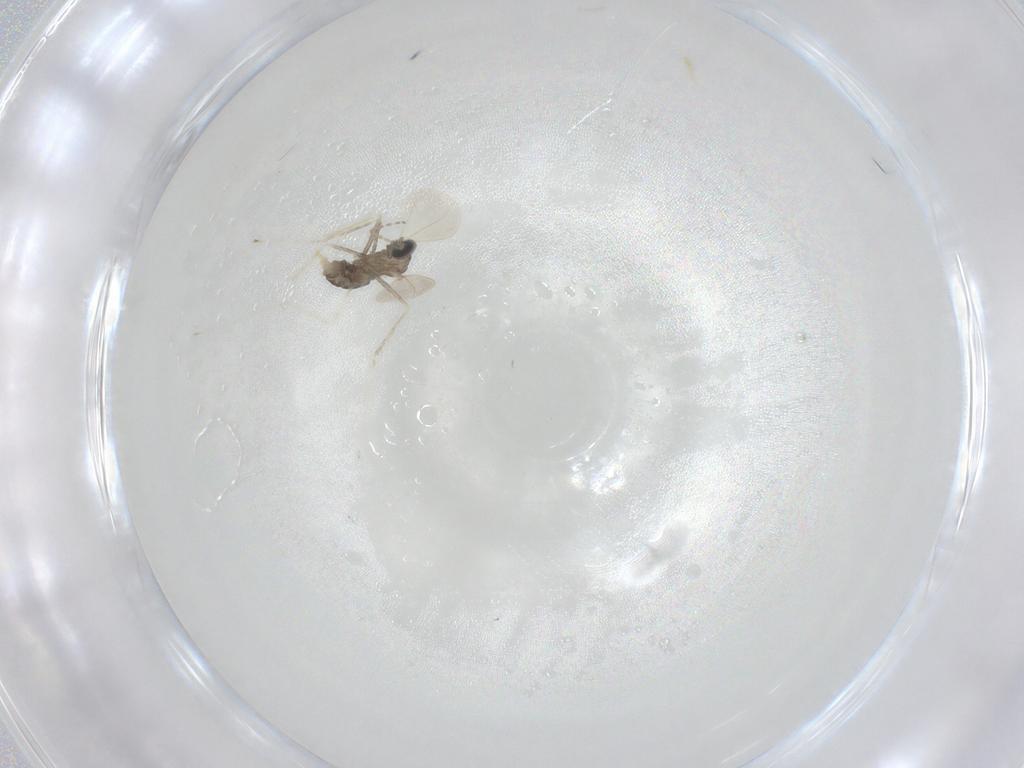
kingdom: Animalia
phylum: Arthropoda
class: Insecta
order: Diptera
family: Cecidomyiidae
